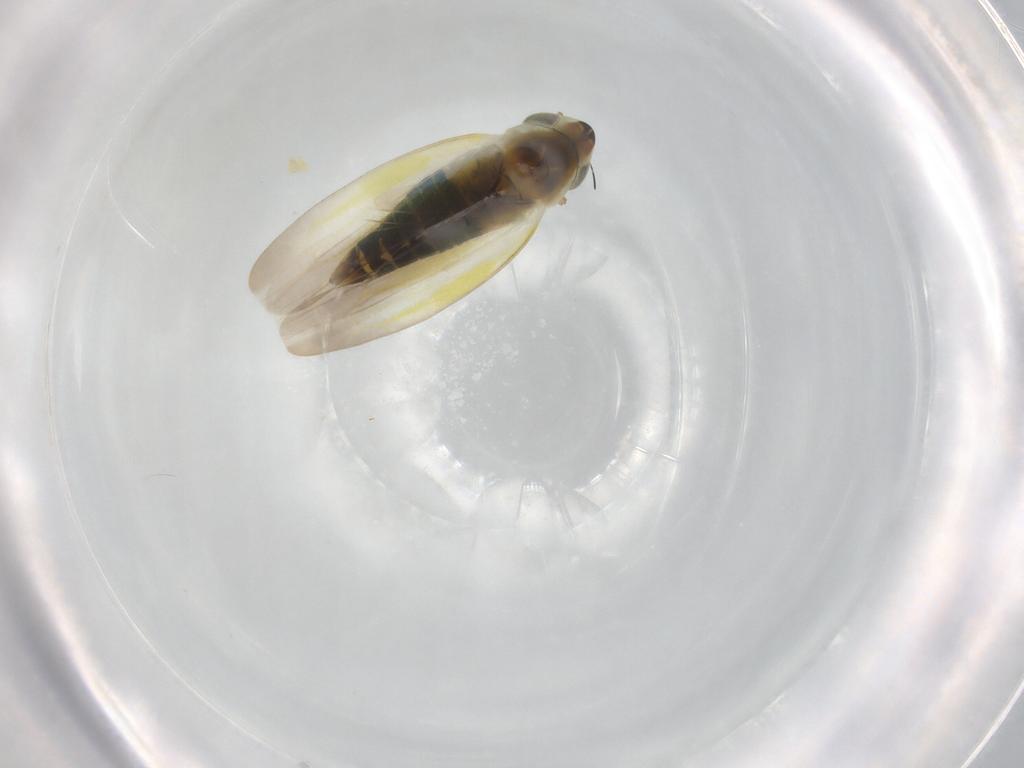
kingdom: Animalia
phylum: Arthropoda
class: Insecta
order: Hemiptera
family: Cicadellidae
